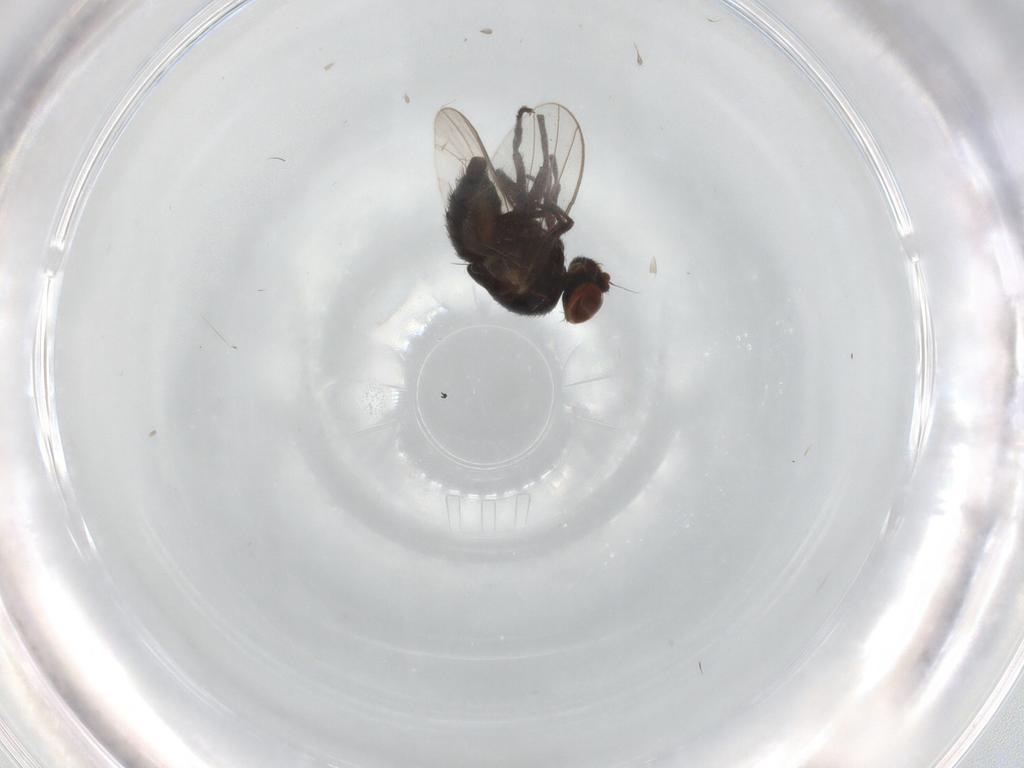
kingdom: Animalia
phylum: Arthropoda
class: Insecta
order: Diptera
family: Agromyzidae
